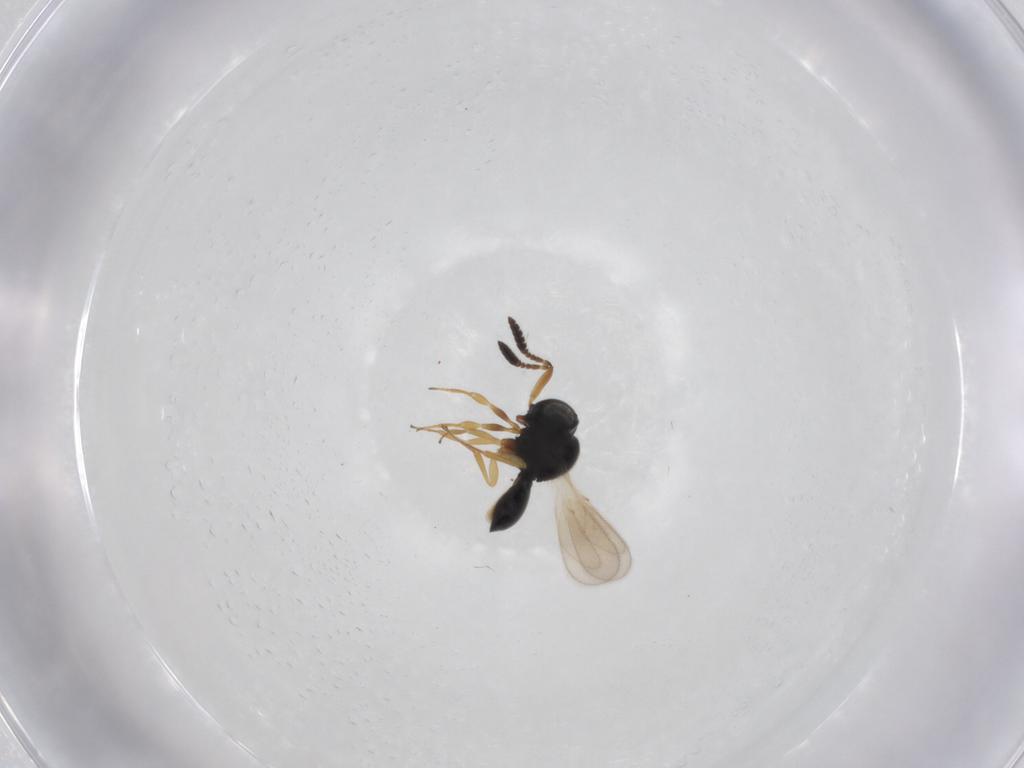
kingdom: Animalia
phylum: Arthropoda
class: Insecta
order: Hymenoptera
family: Scelionidae
